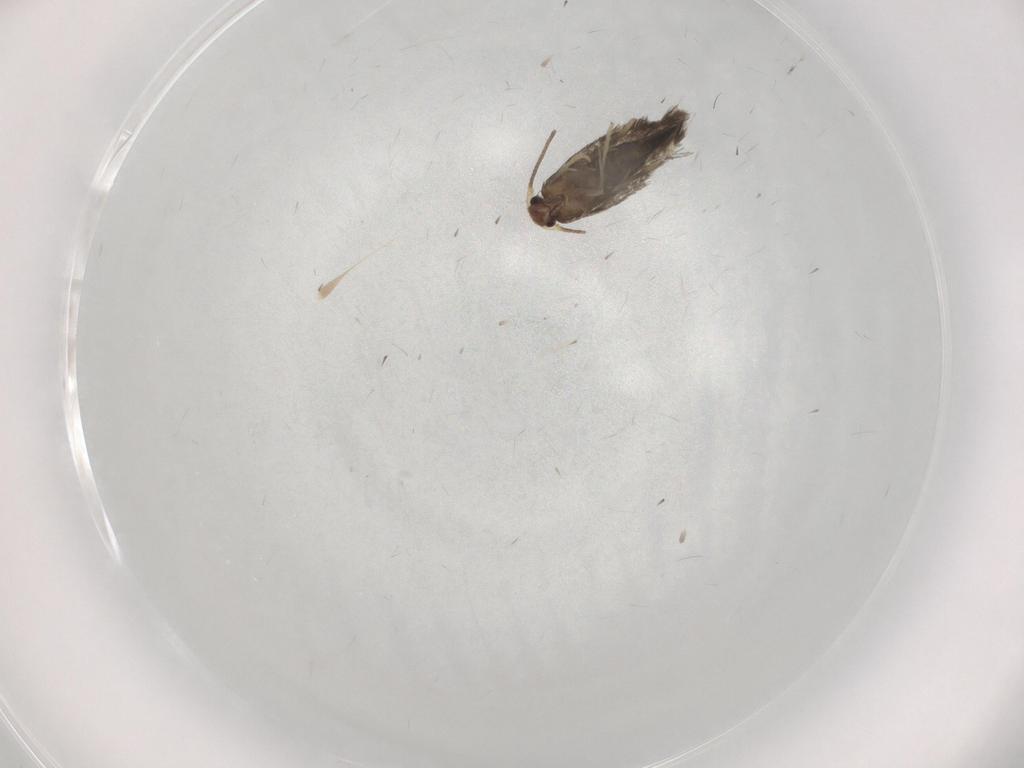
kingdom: Animalia
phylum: Arthropoda
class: Insecta
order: Lepidoptera
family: Nepticulidae
